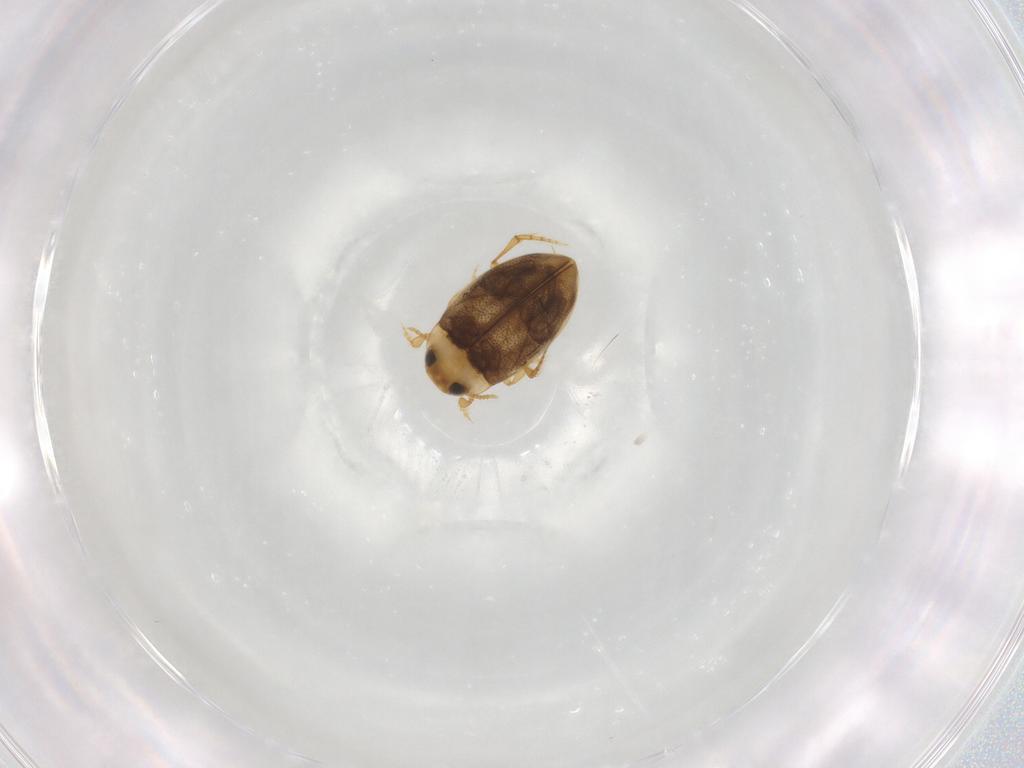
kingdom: Animalia
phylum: Arthropoda
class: Insecta
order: Coleoptera
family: Dytiscidae
